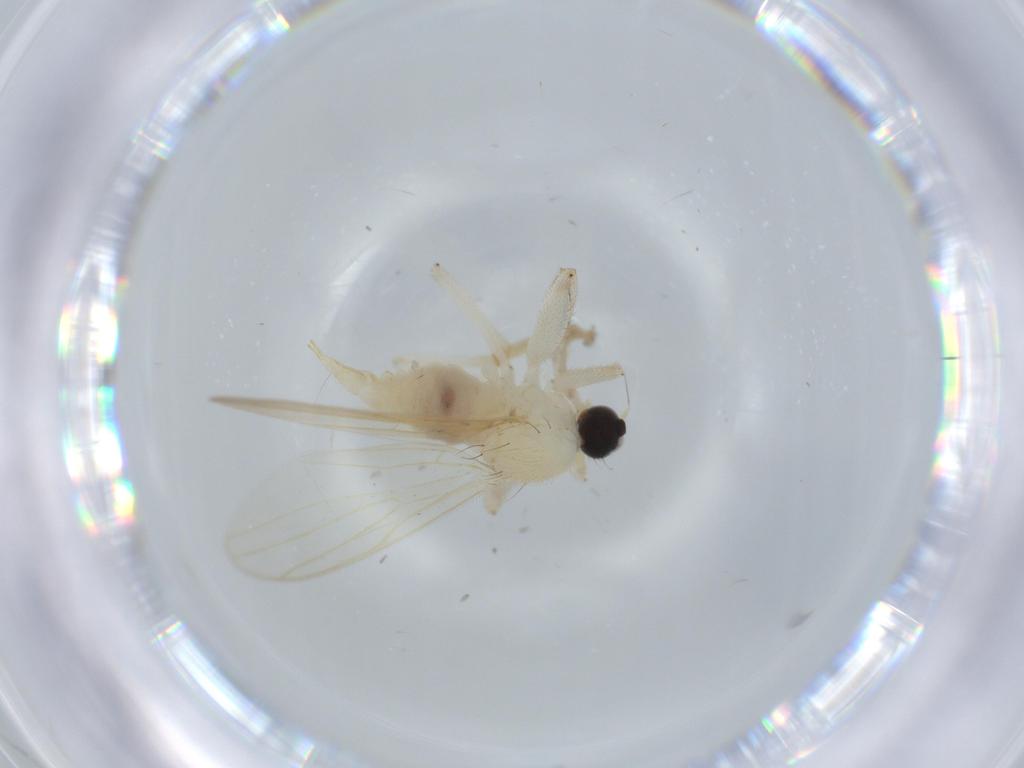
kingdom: Animalia
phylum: Arthropoda
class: Insecta
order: Diptera
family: Hybotidae
